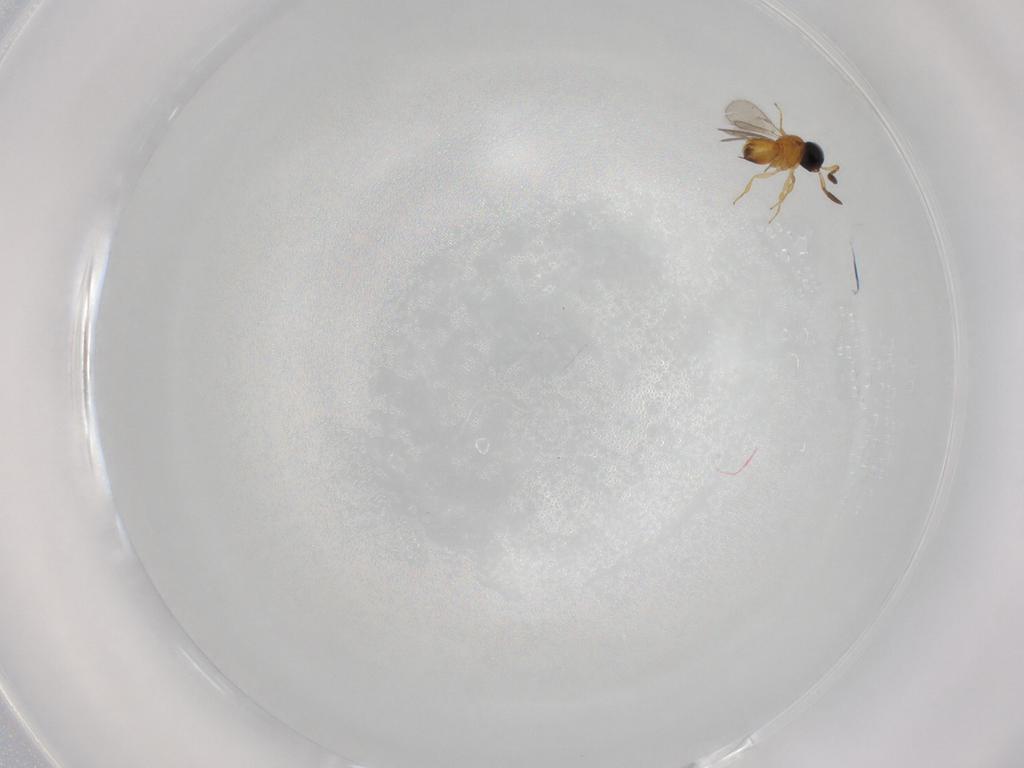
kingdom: Animalia
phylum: Arthropoda
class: Insecta
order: Hymenoptera
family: Scelionidae
